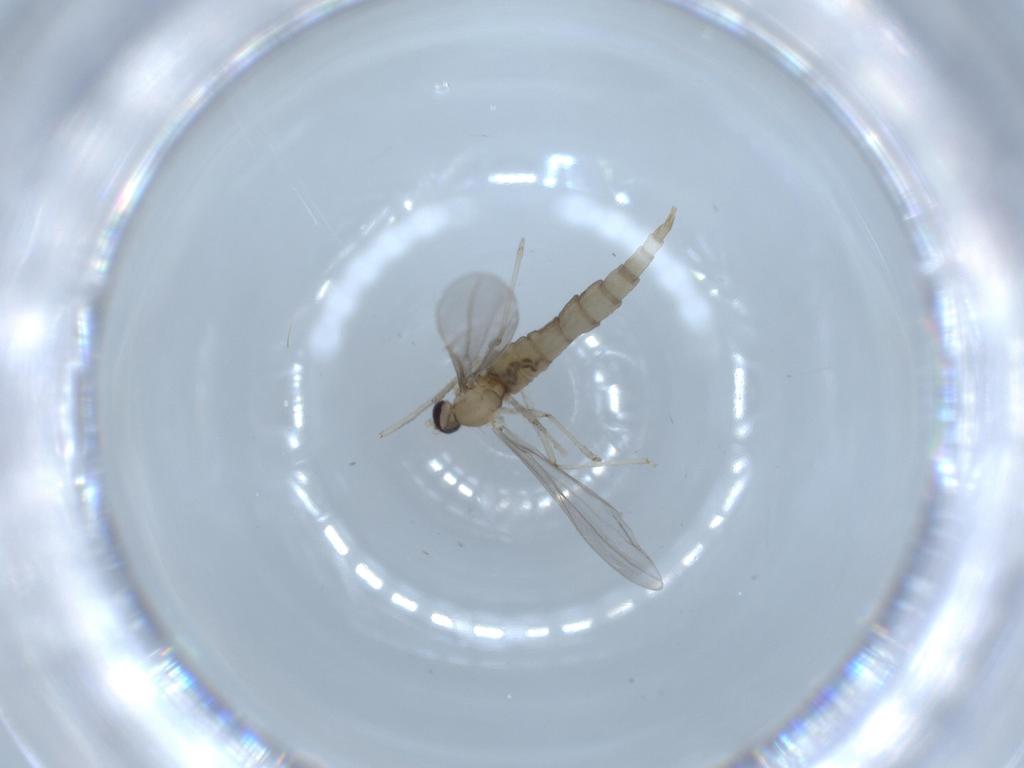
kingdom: Animalia
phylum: Arthropoda
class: Insecta
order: Diptera
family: Cecidomyiidae
